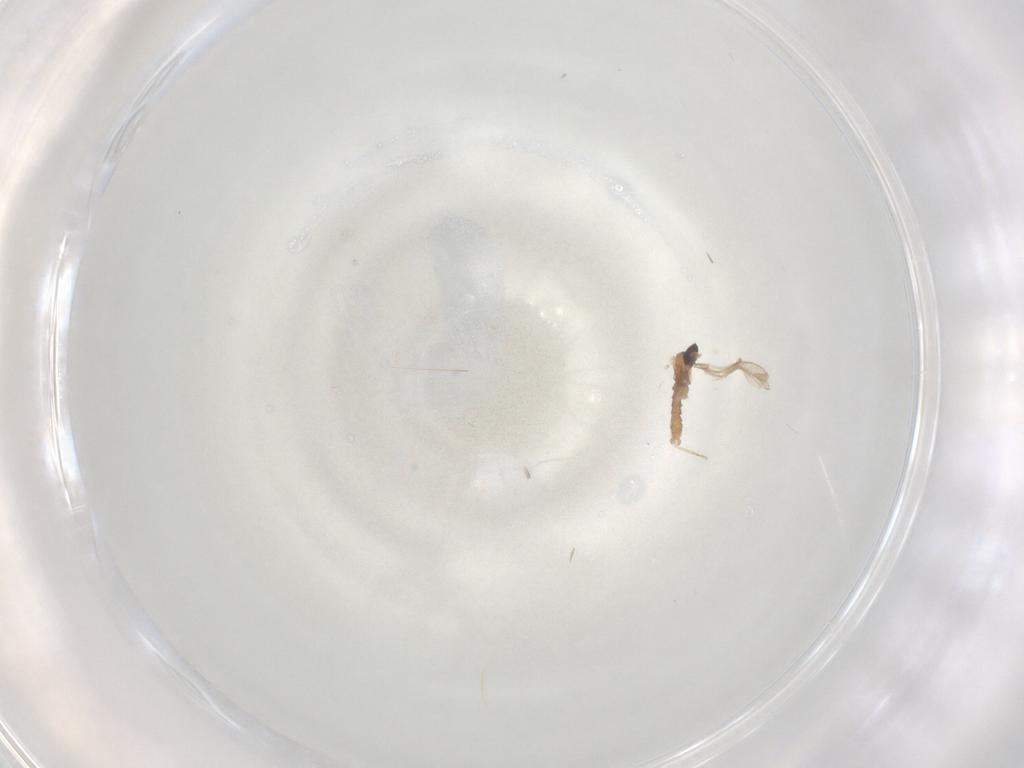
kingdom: Animalia
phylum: Arthropoda
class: Insecta
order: Diptera
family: Cecidomyiidae
